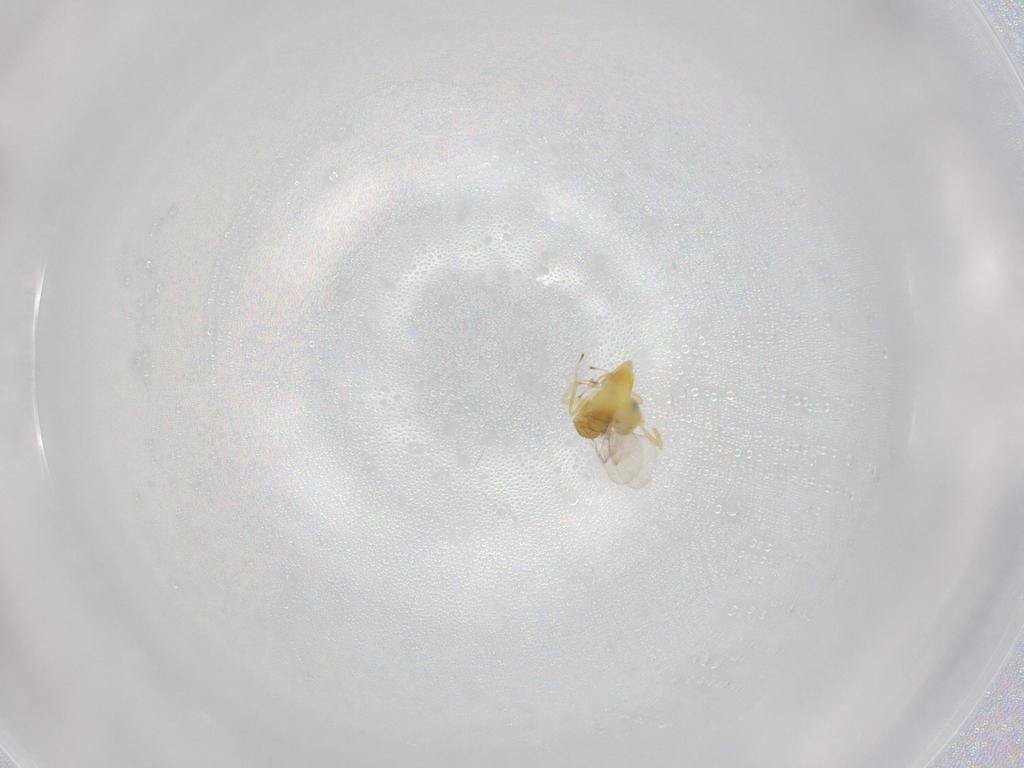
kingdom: Animalia
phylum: Arthropoda
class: Insecta
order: Hymenoptera
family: Aphelinidae
